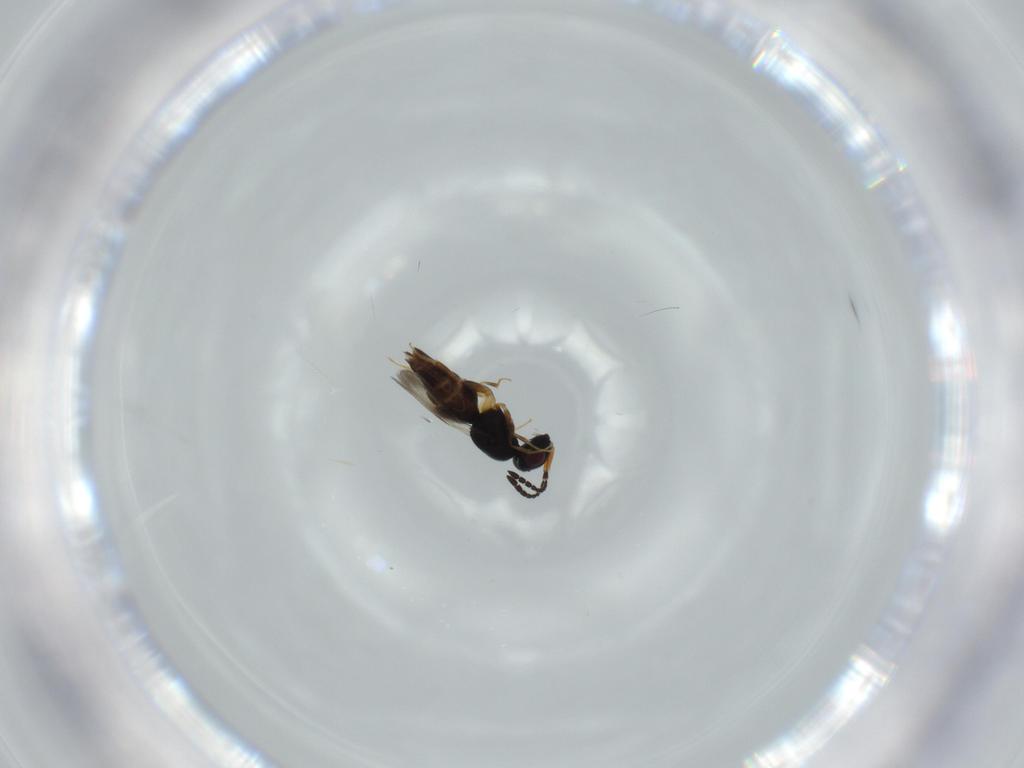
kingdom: Animalia
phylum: Arthropoda
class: Insecta
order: Hymenoptera
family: Ceraphronidae
